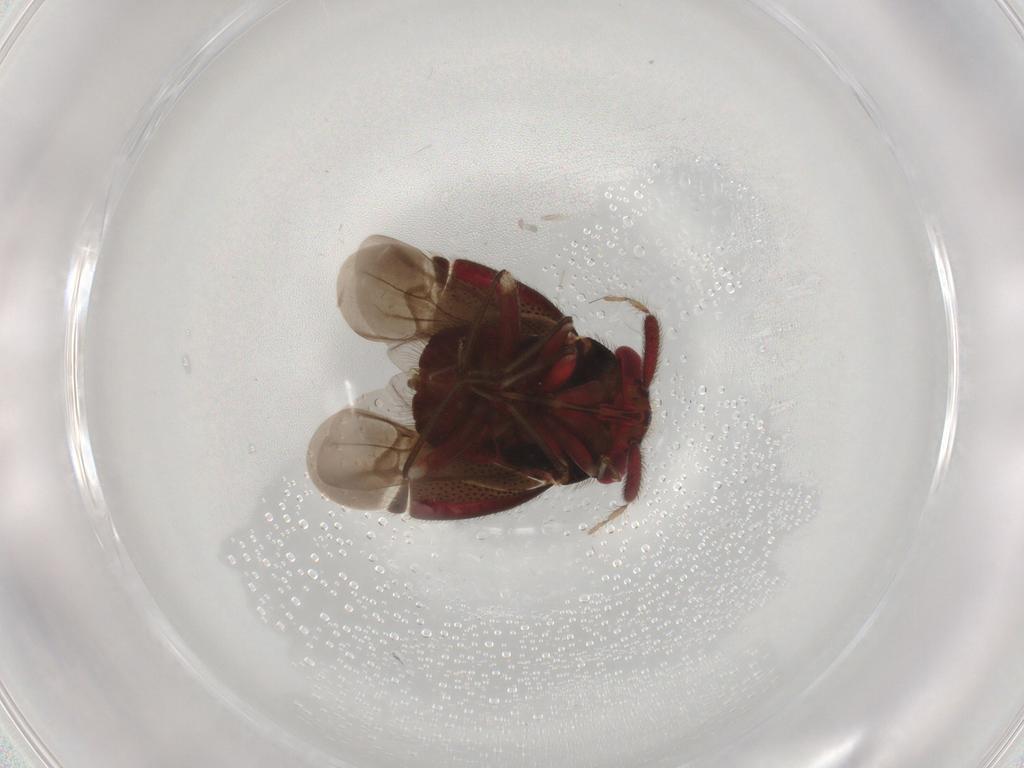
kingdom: Animalia
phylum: Arthropoda
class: Insecta
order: Hemiptera
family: Miridae
